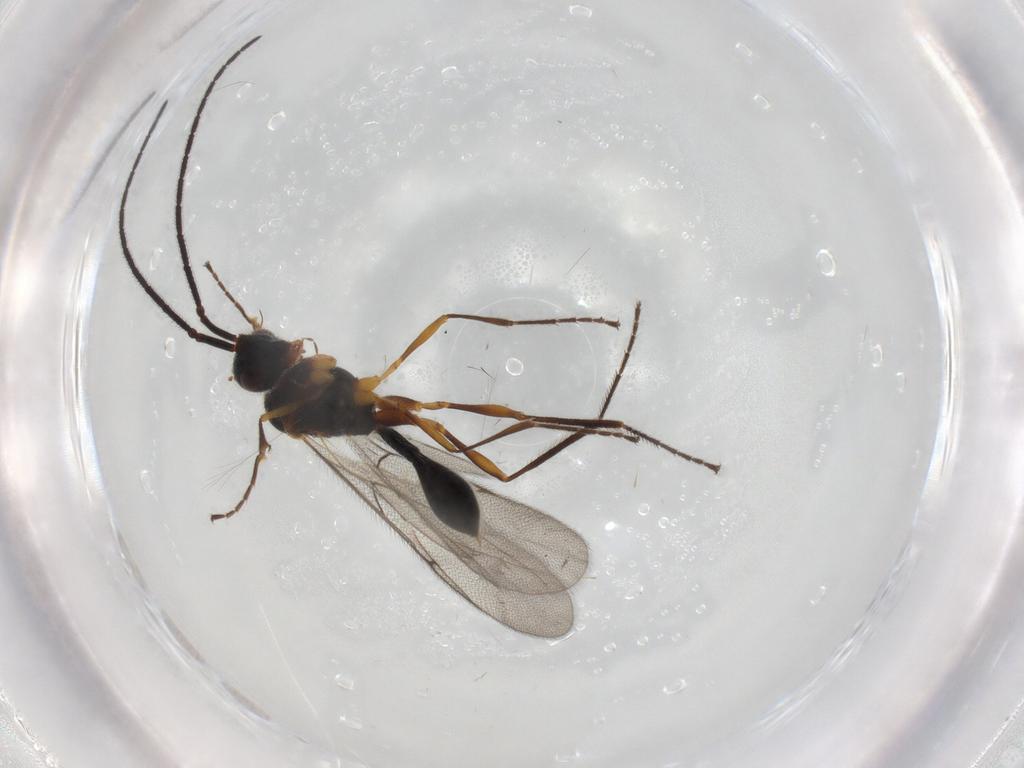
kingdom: Animalia
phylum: Arthropoda
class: Insecta
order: Hymenoptera
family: Diapriidae
